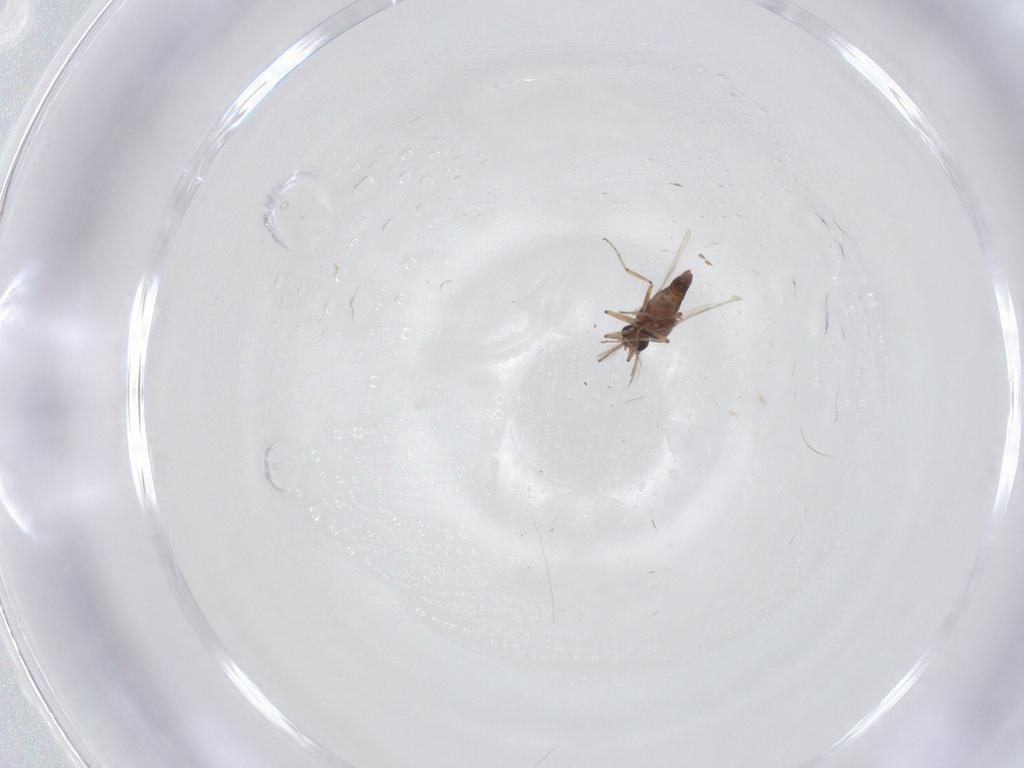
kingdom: Animalia
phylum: Arthropoda
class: Insecta
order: Diptera
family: Ceratopogonidae
